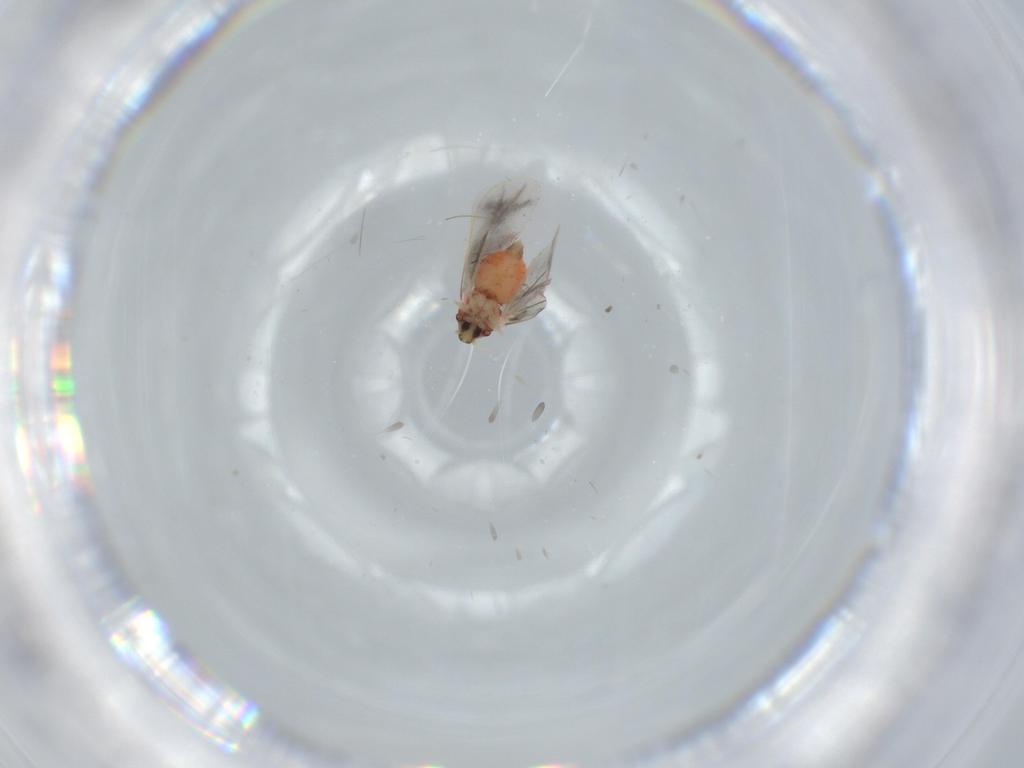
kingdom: Animalia
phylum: Arthropoda
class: Insecta
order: Hemiptera
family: Aleyrodidae
